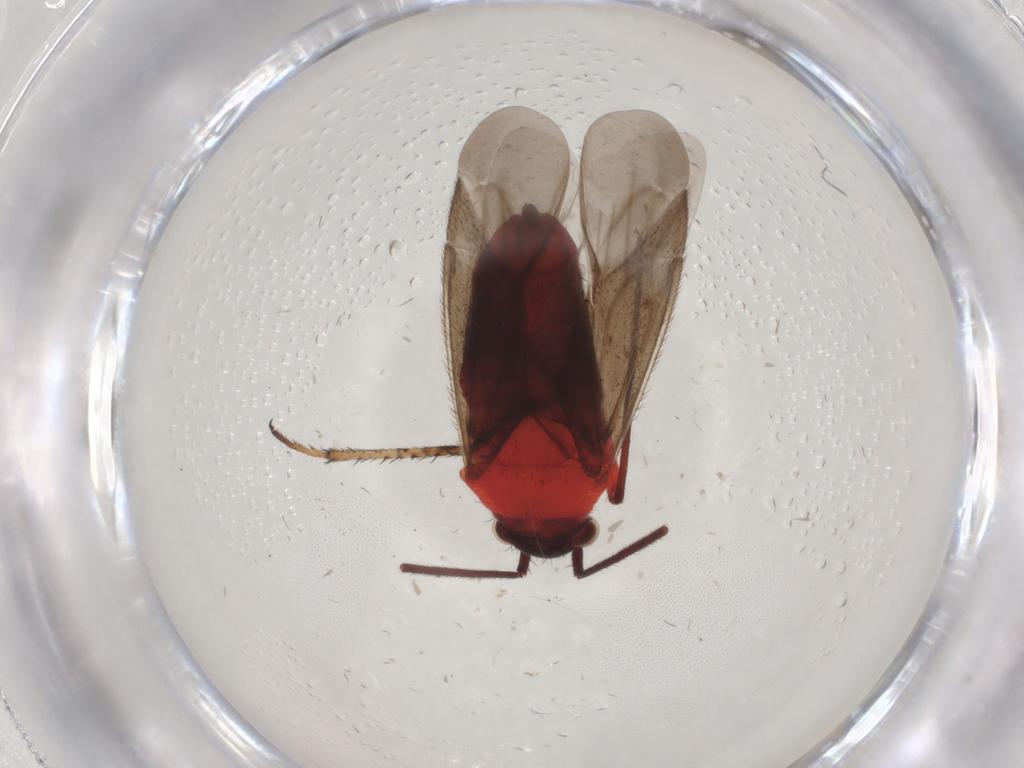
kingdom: Animalia
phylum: Arthropoda
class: Insecta
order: Hemiptera
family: Miridae
